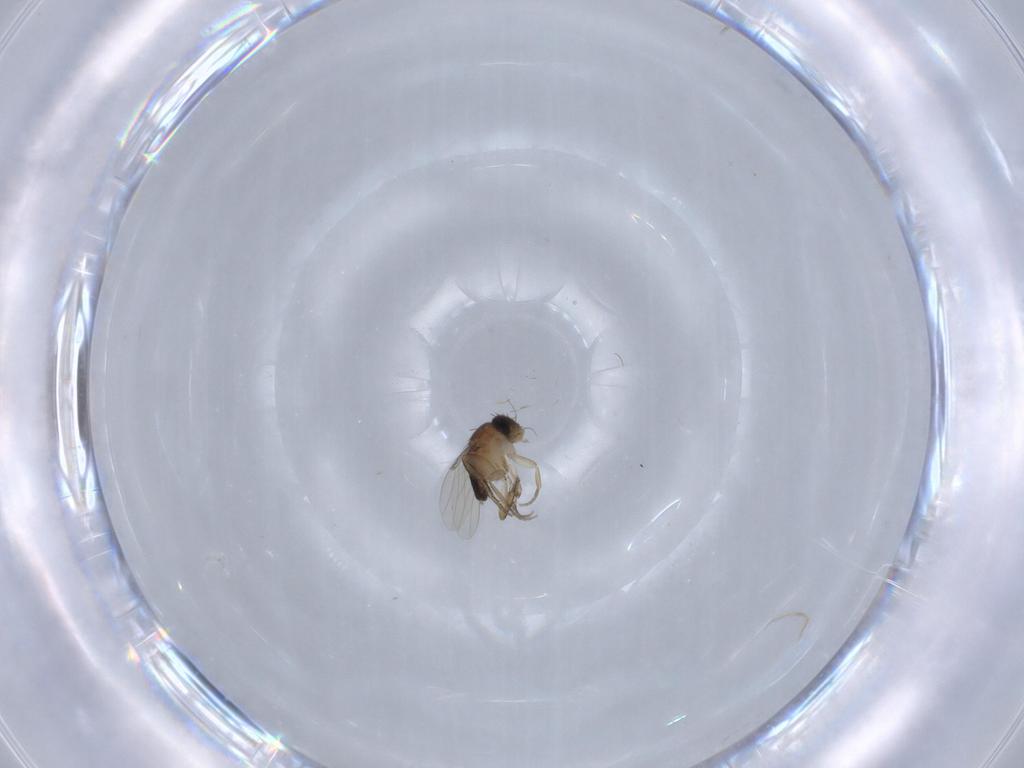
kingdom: Animalia
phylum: Arthropoda
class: Insecta
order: Diptera
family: Phoridae
